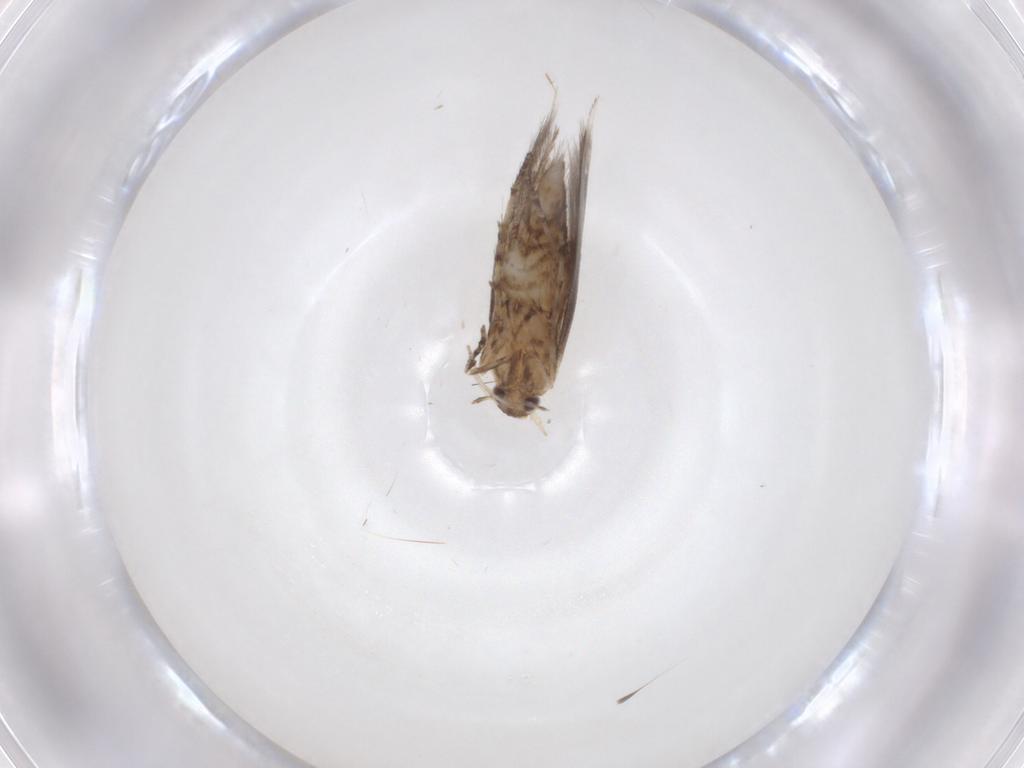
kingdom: Animalia
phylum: Arthropoda
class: Insecta
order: Lepidoptera
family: Gracillariidae
